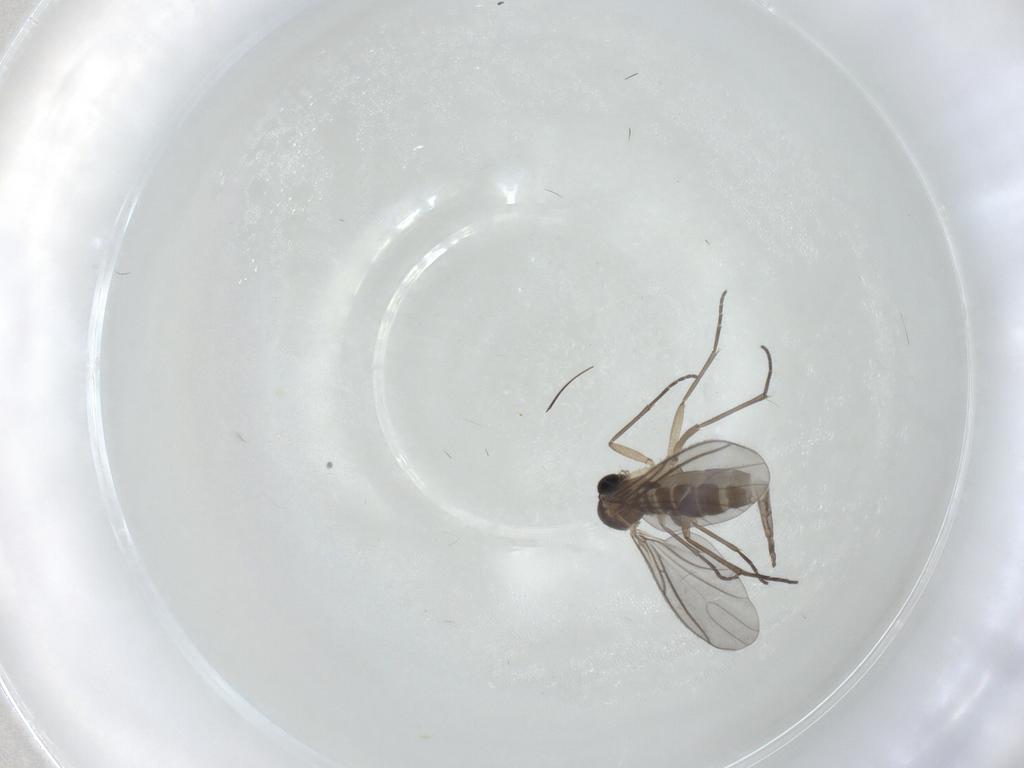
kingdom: Animalia
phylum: Arthropoda
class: Insecta
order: Diptera
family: Sciaridae
